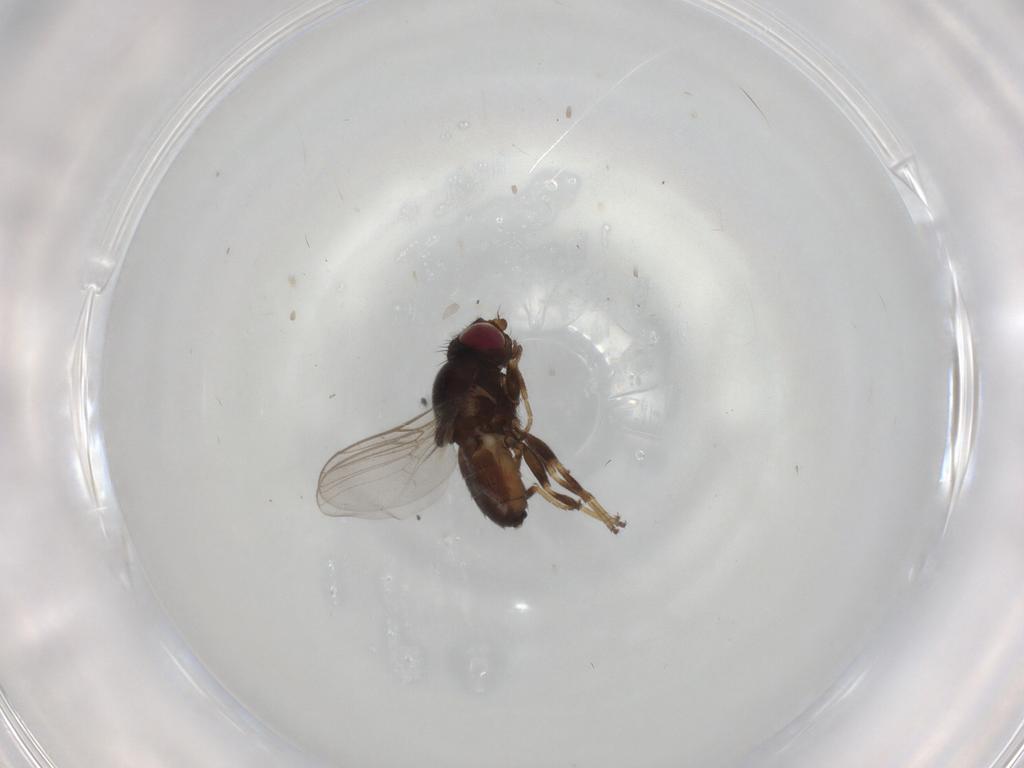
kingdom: Animalia
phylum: Arthropoda
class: Insecta
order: Diptera
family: Chloropidae
